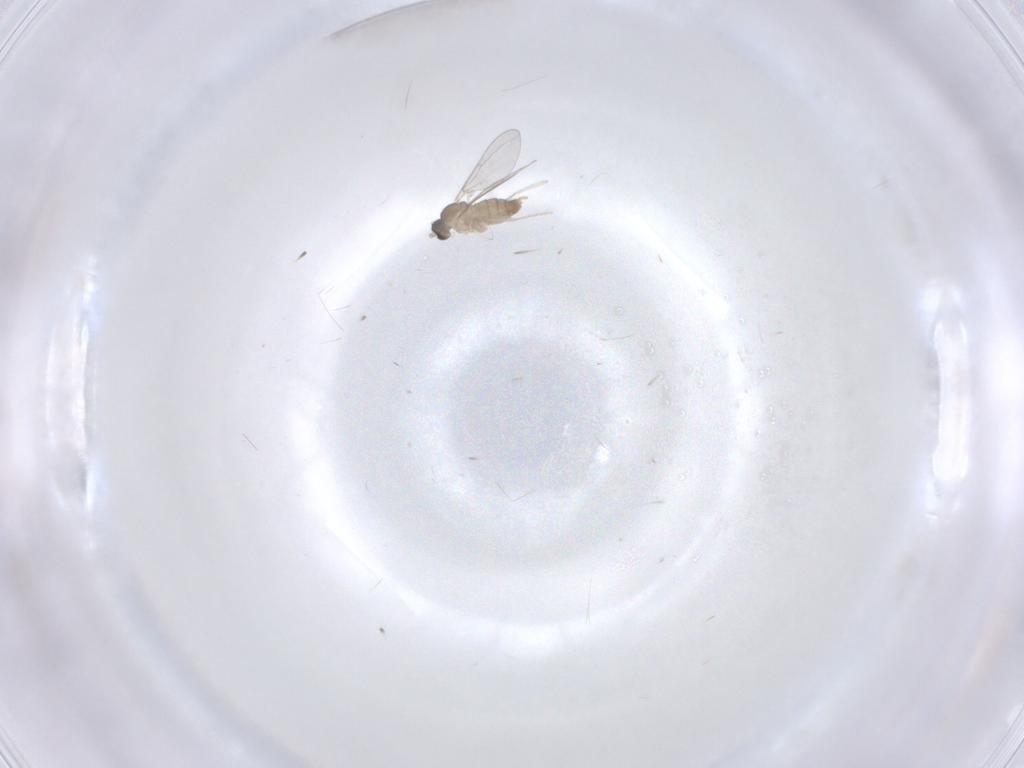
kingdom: Animalia
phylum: Arthropoda
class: Insecta
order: Diptera
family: Cecidomyiidae
